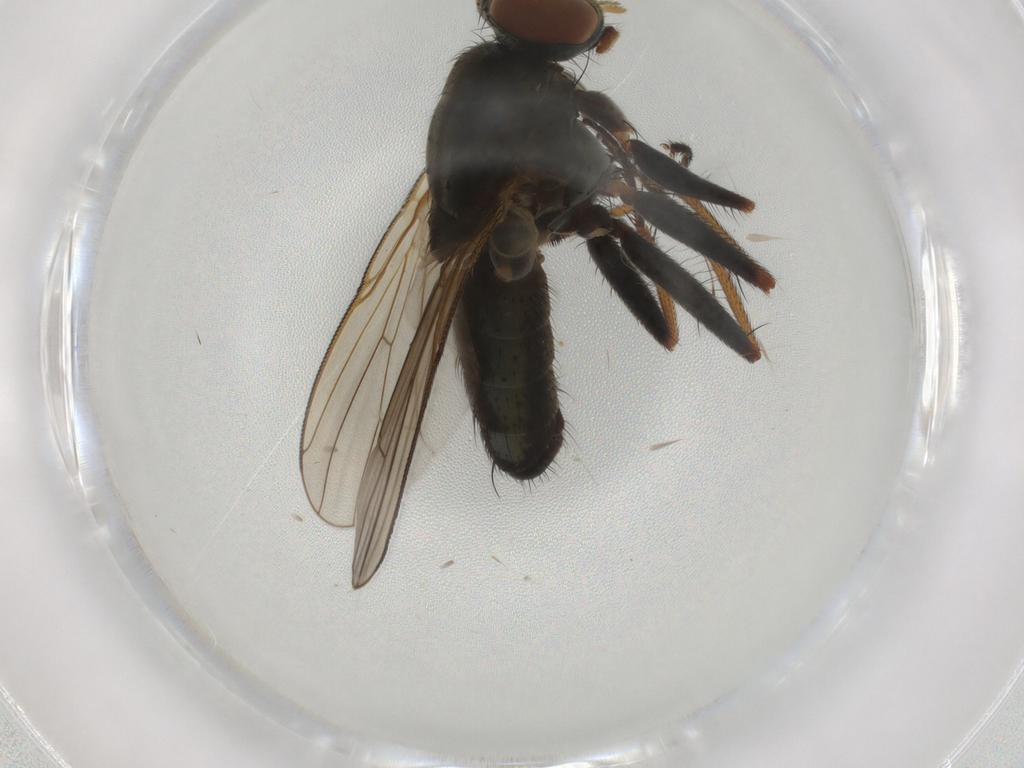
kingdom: Animalia
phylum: Arthropoda
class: Insecta
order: Diptera
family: Muscidae
